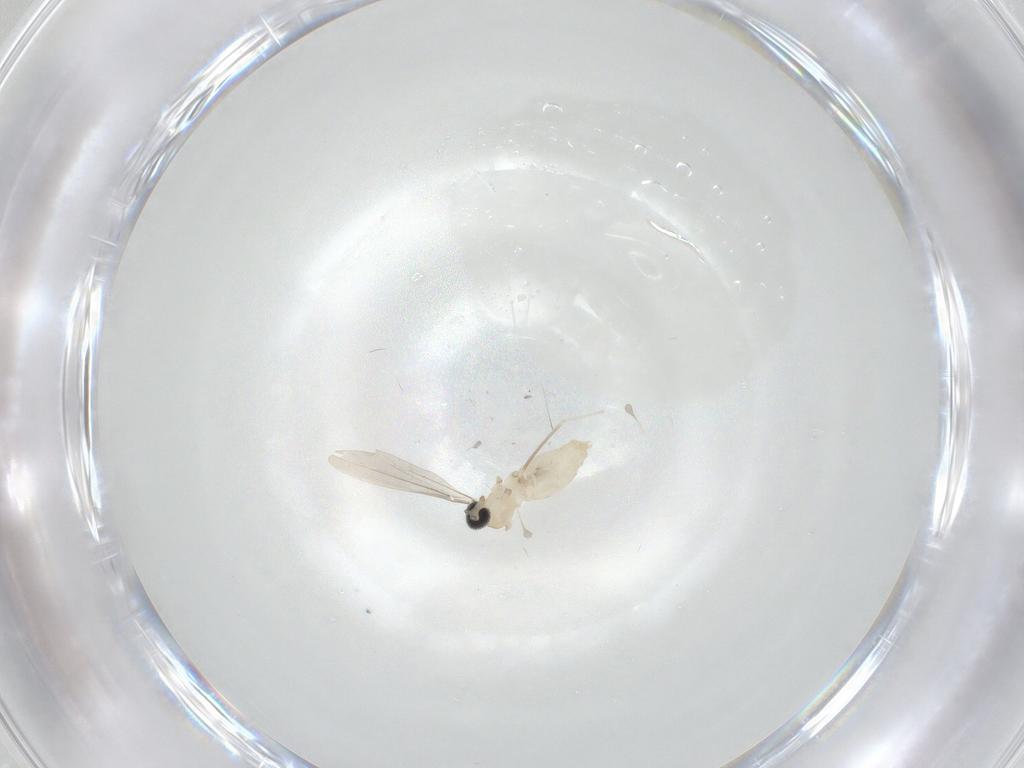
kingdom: Animalia
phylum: Arthropoda
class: Insecta
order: Diptera
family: Cecidomyiidae
